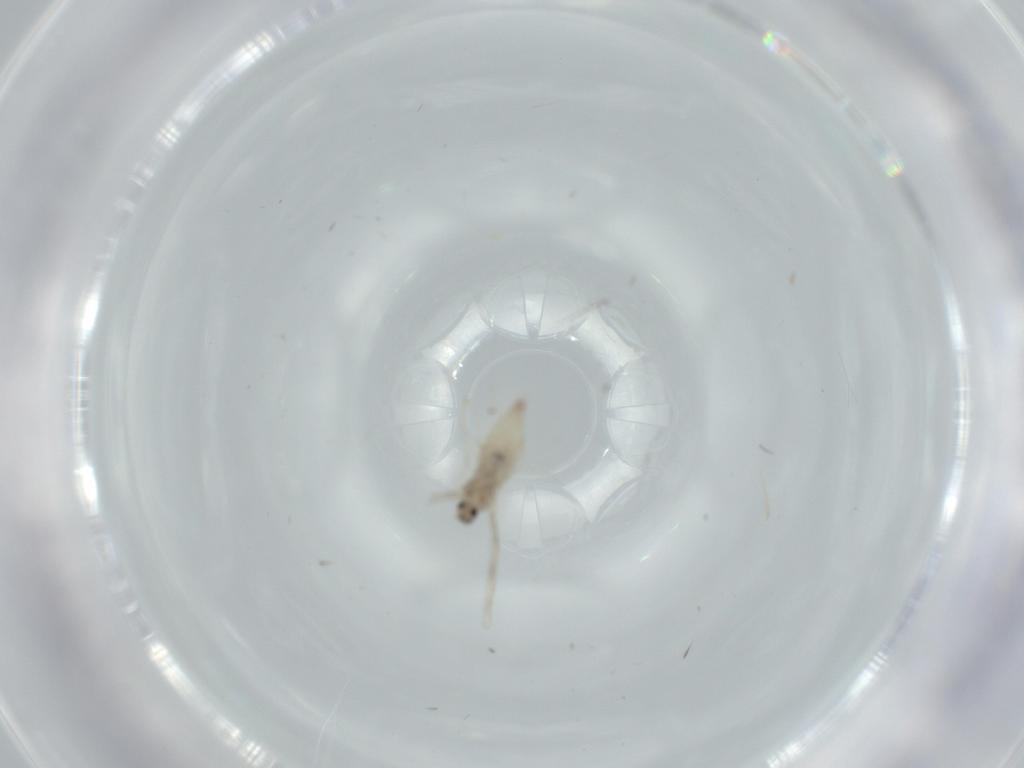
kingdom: Animalia
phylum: Arthropoda
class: Insecta
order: Diptera
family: Cecidomyiidae
